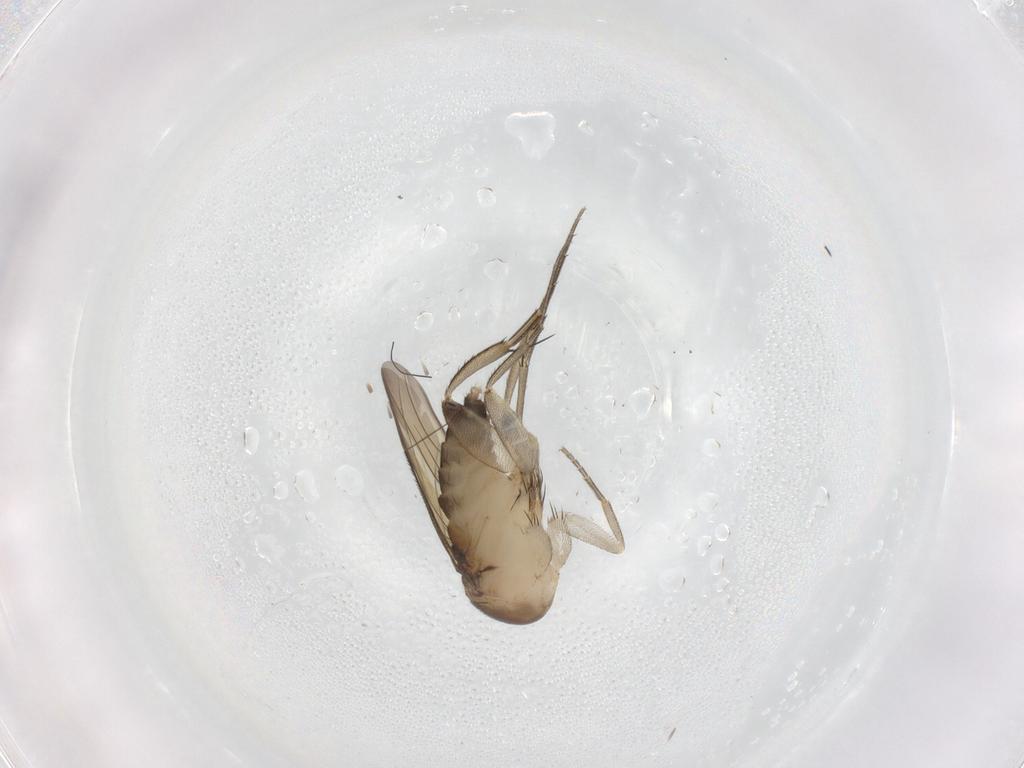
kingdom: Animalia
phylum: Arthropoda
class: Insecta
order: Diptera
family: Phoridae
